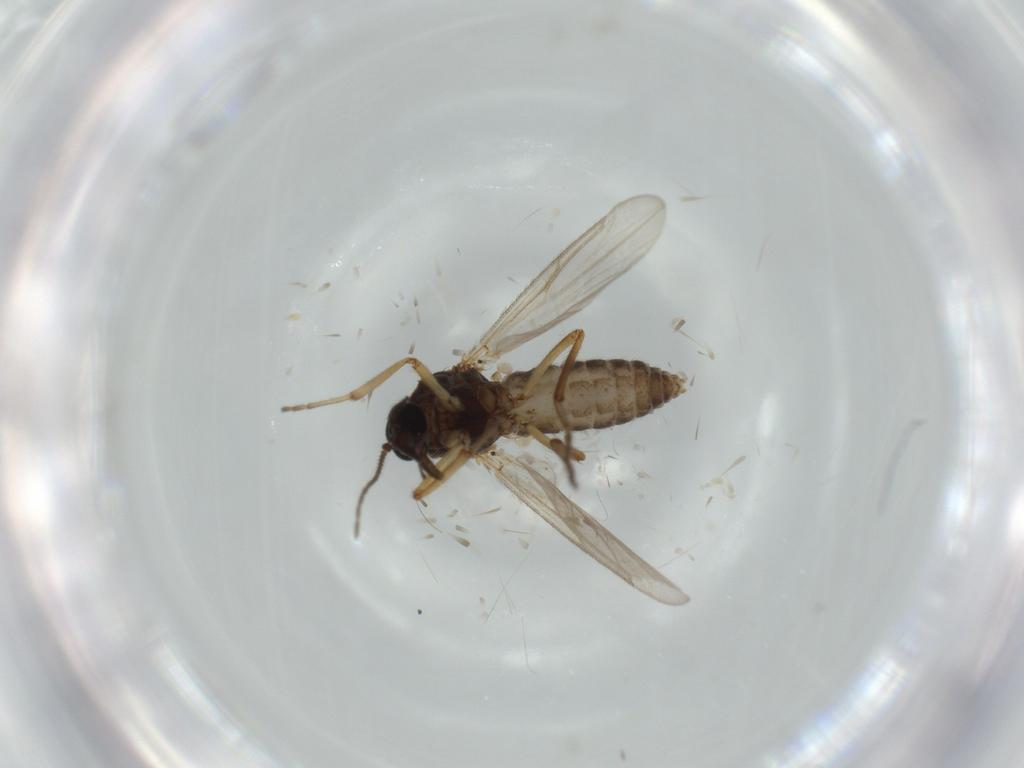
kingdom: Animalia
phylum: Arthropoda
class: Insecta
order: Diptera
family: Ceratopogonidae
